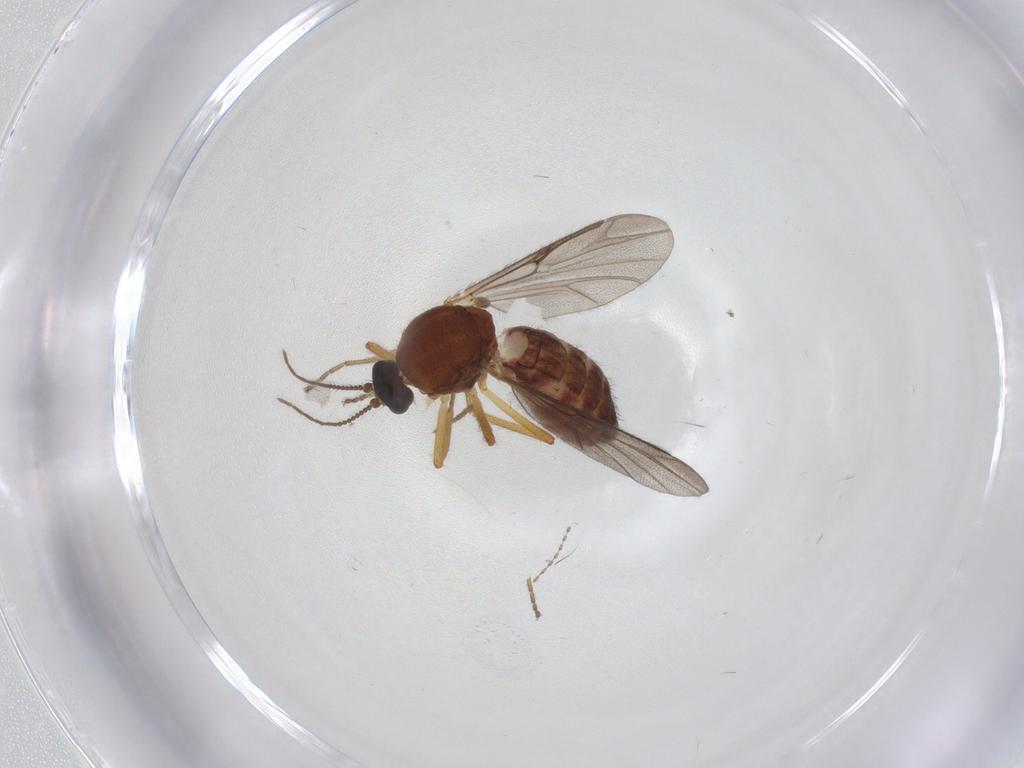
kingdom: Animalia
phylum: Arthropoda
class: Insecta
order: Diptera
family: Ceratopogonidae
